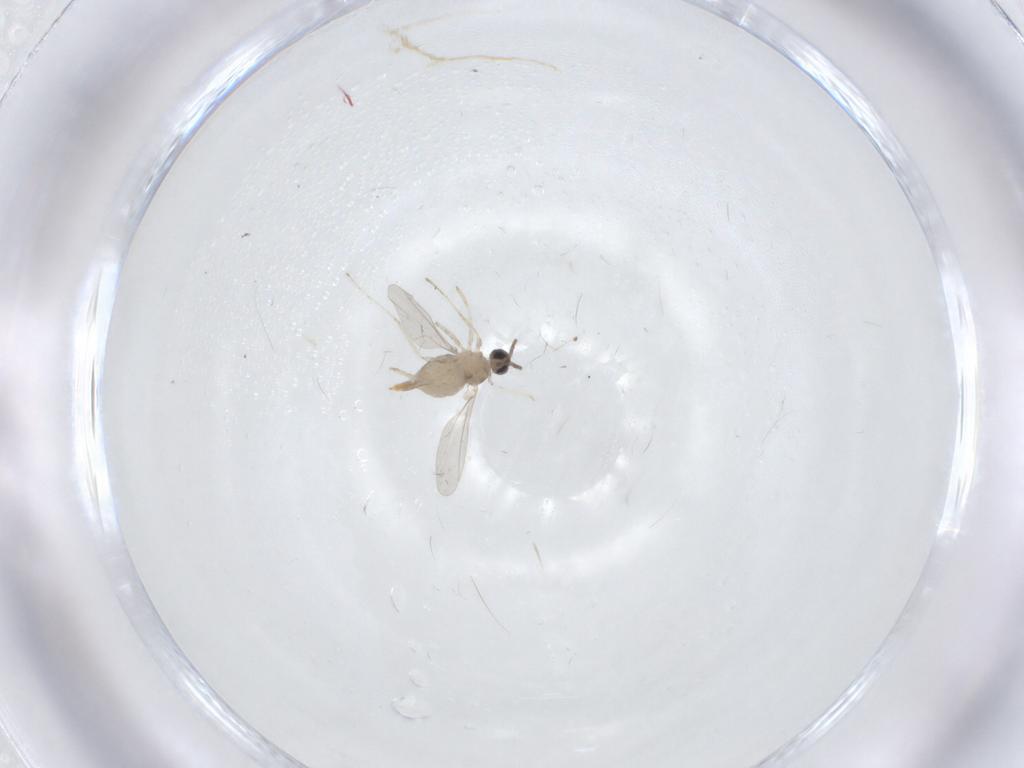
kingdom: Animalia
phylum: Arthropoda
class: Insecta
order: Diptera
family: Cecidomyiidae
